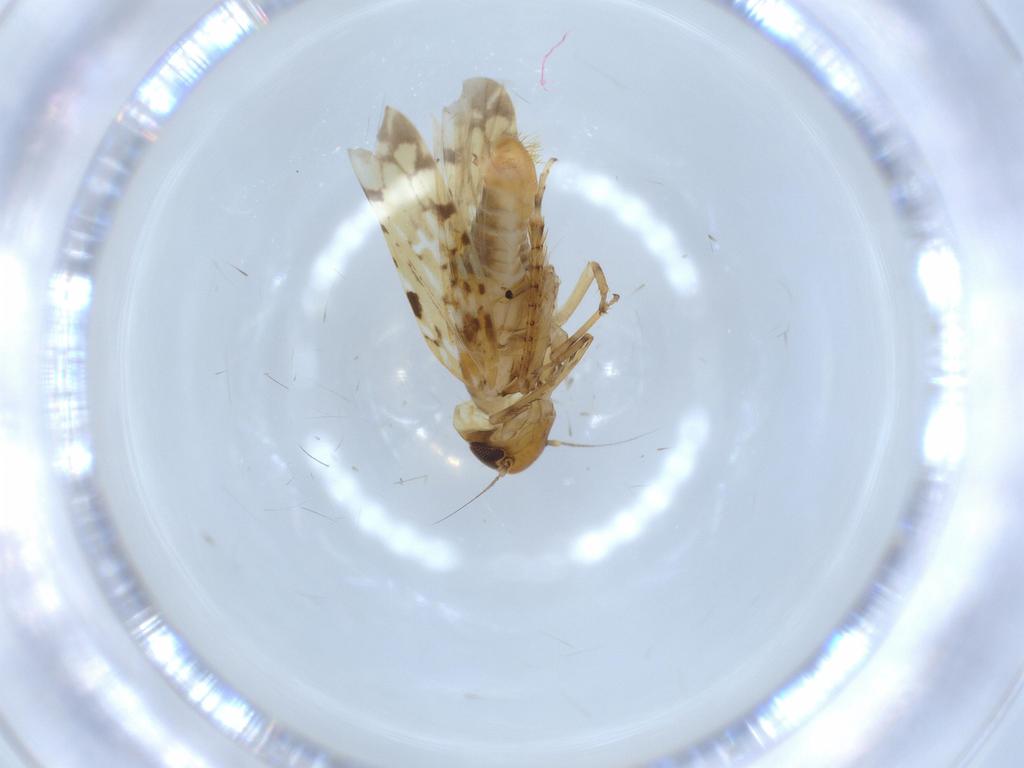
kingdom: Animalia
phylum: Arthropoda
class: Insecta
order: Hemiptera
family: Cicadellidae
